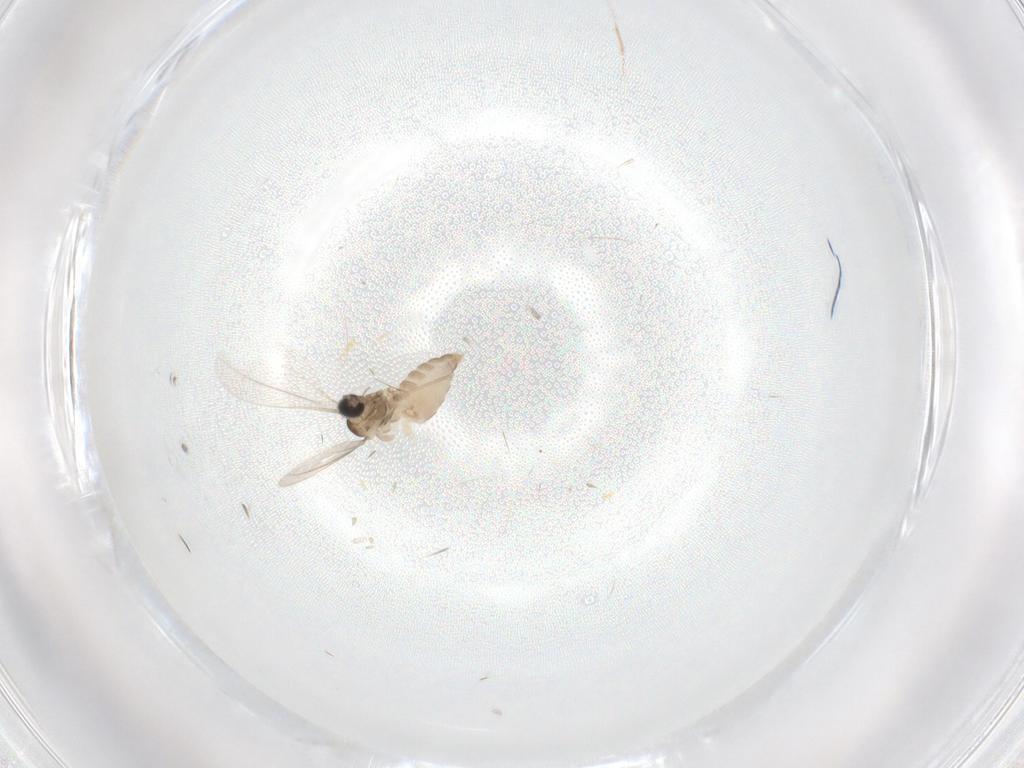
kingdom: Animalia
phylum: Arthropoda
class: Insecta
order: Diptera
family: Cecidomyiidae
